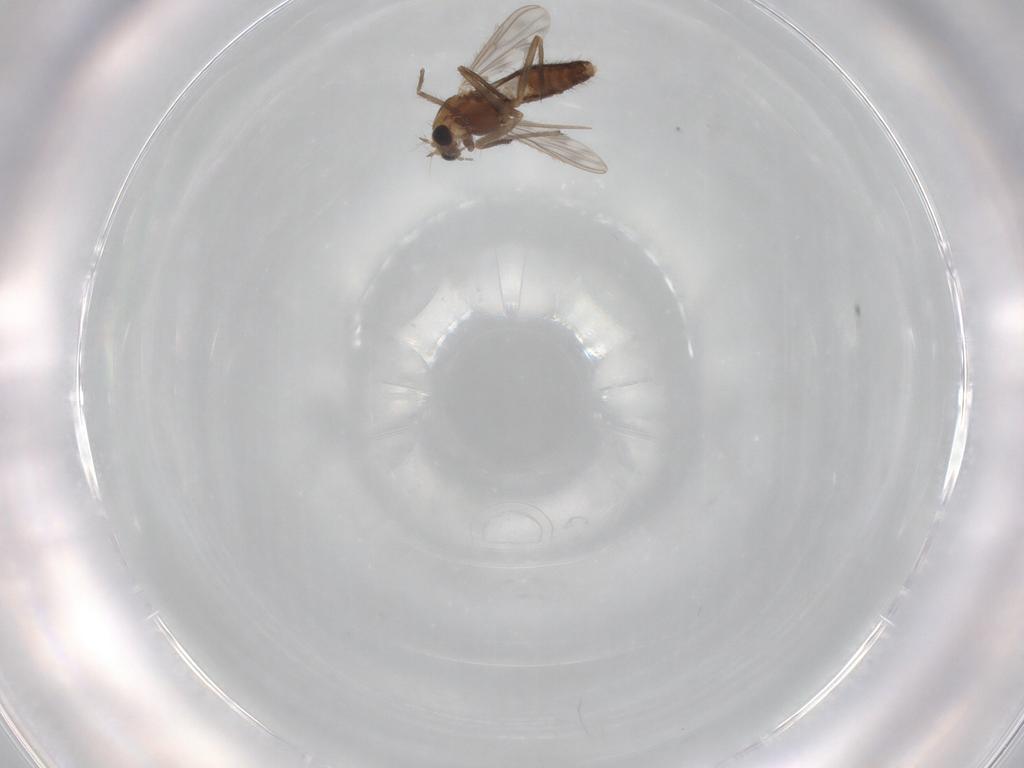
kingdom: Animalia
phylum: Arthropoda
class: Insecta
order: Diptera
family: Chironomidae
